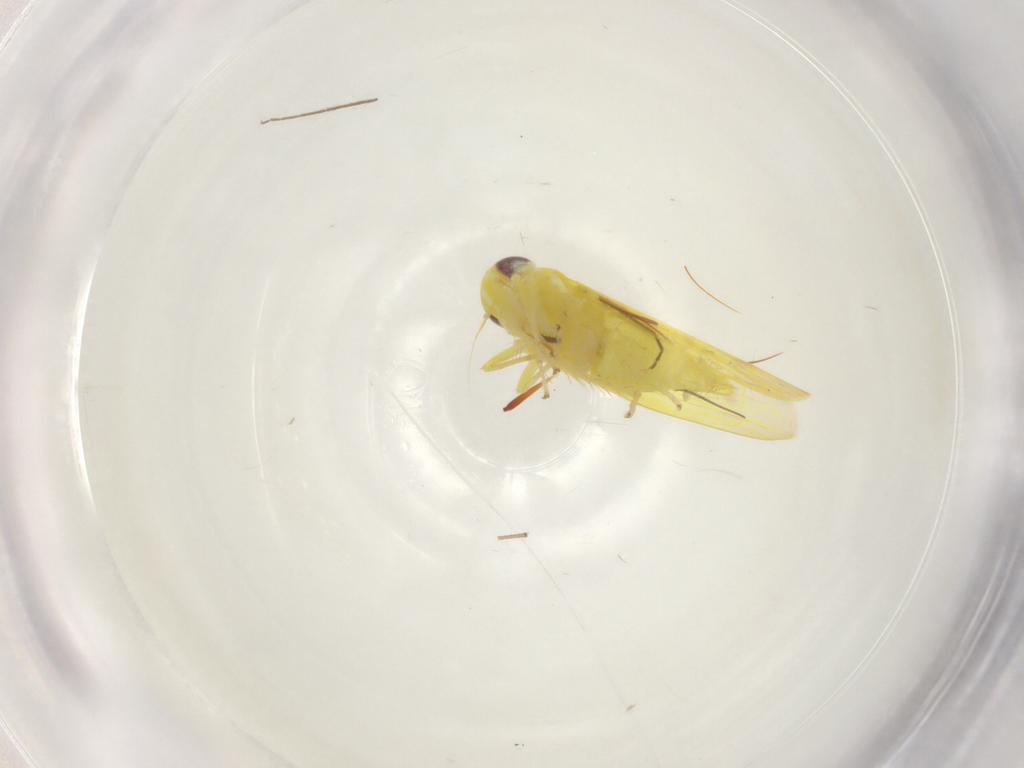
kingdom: Animalia
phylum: Arthropoda
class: Insecta
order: Hemiptera
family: Cicadellidae
